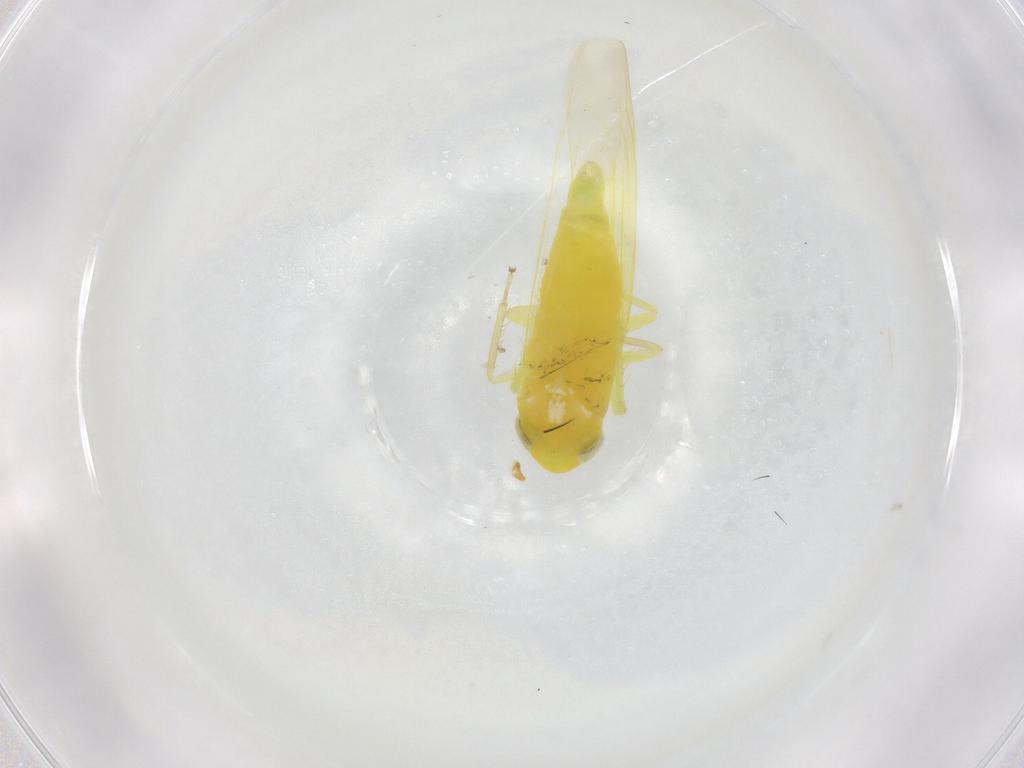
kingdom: Animalia
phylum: Arthropoda
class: Insecta
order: Hemiptera
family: Cicadellidae
